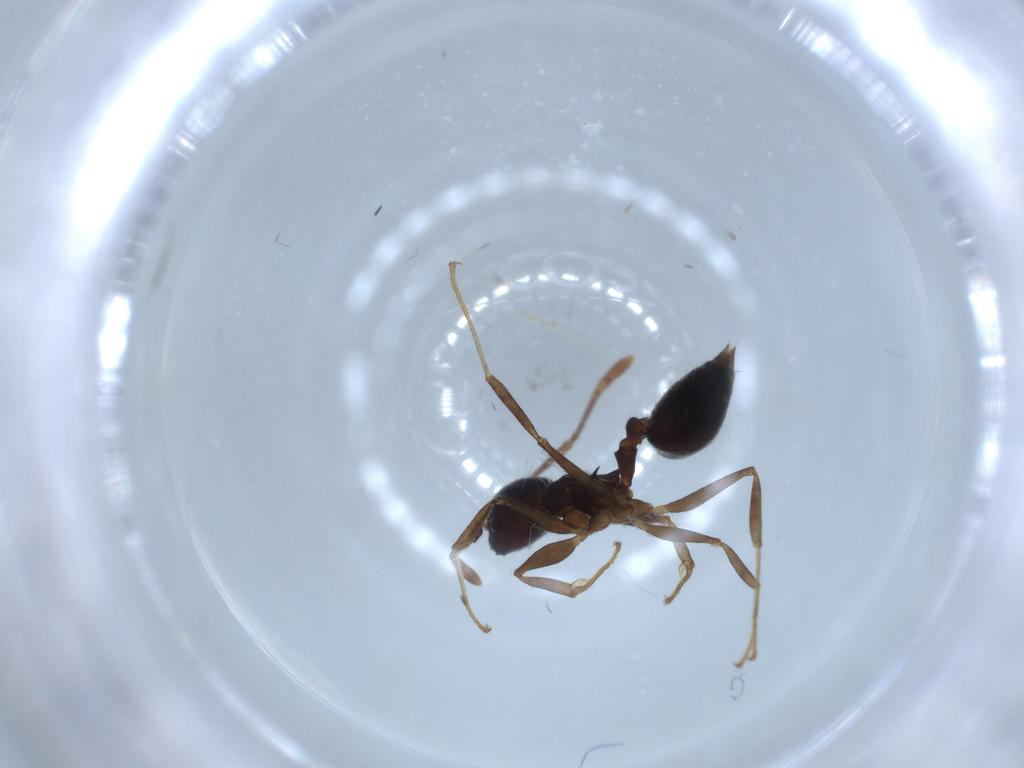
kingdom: Animalia
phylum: Arthropoda
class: Insecta
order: Hymenoptera
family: Formicidae
